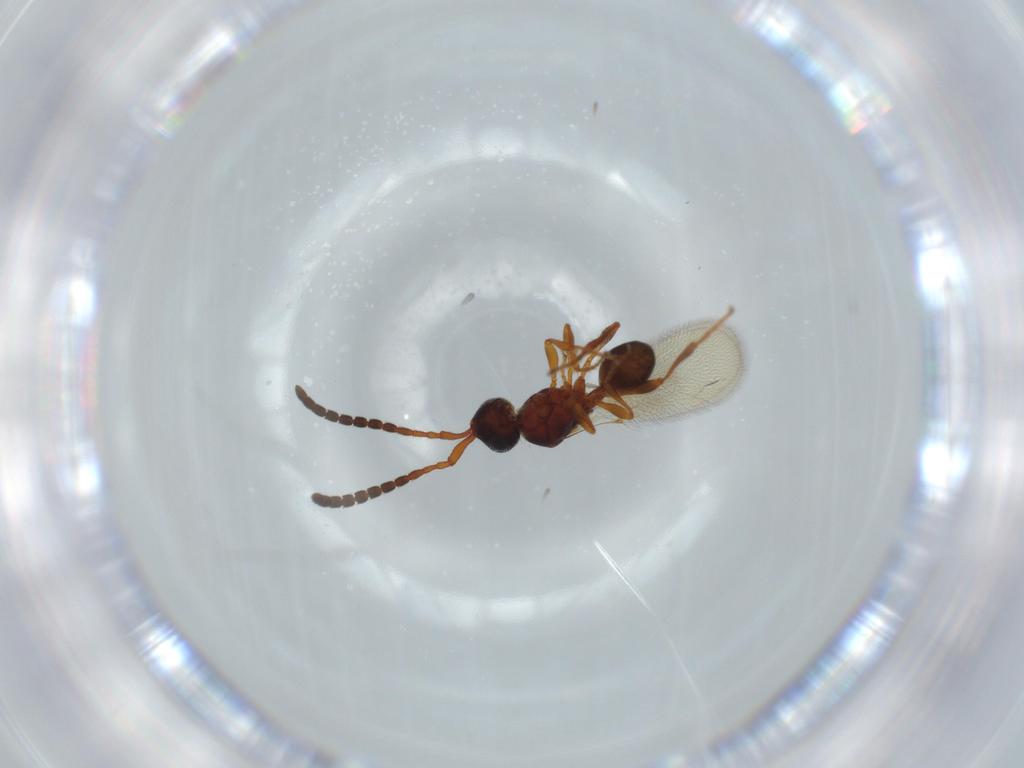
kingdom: Animalia
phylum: Arthropoda
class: Insecta
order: Hymenoptera
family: Diapriidae
